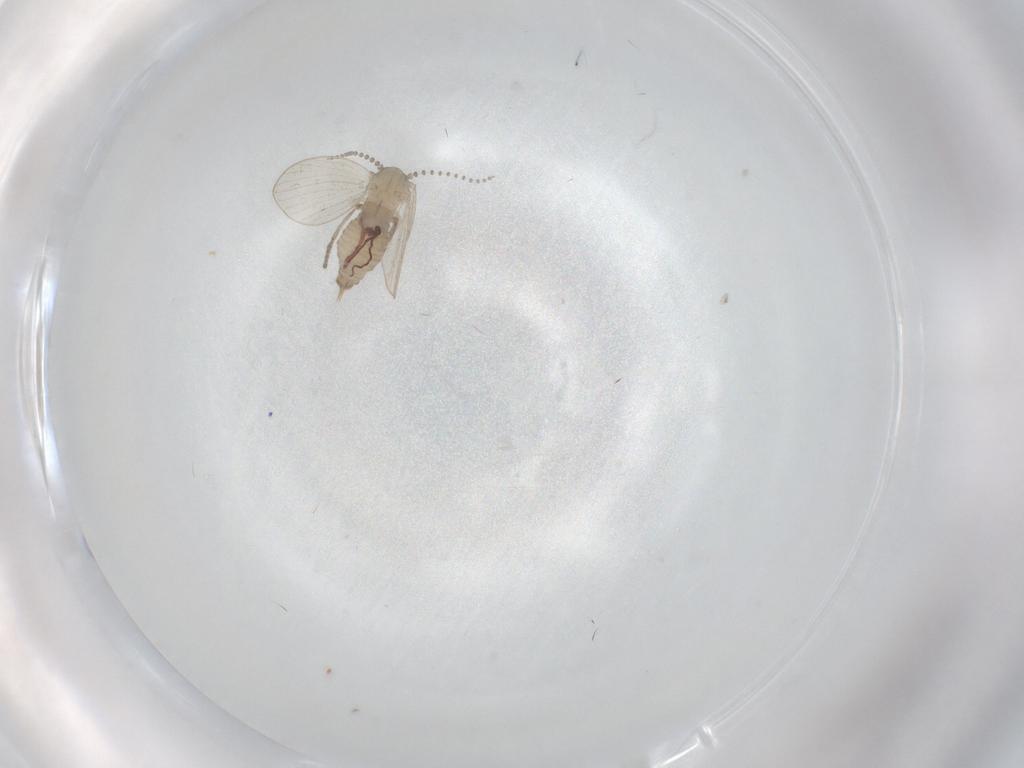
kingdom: Animalia
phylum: Arthropoda
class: Insecta
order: Diptera
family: Psychodidae
